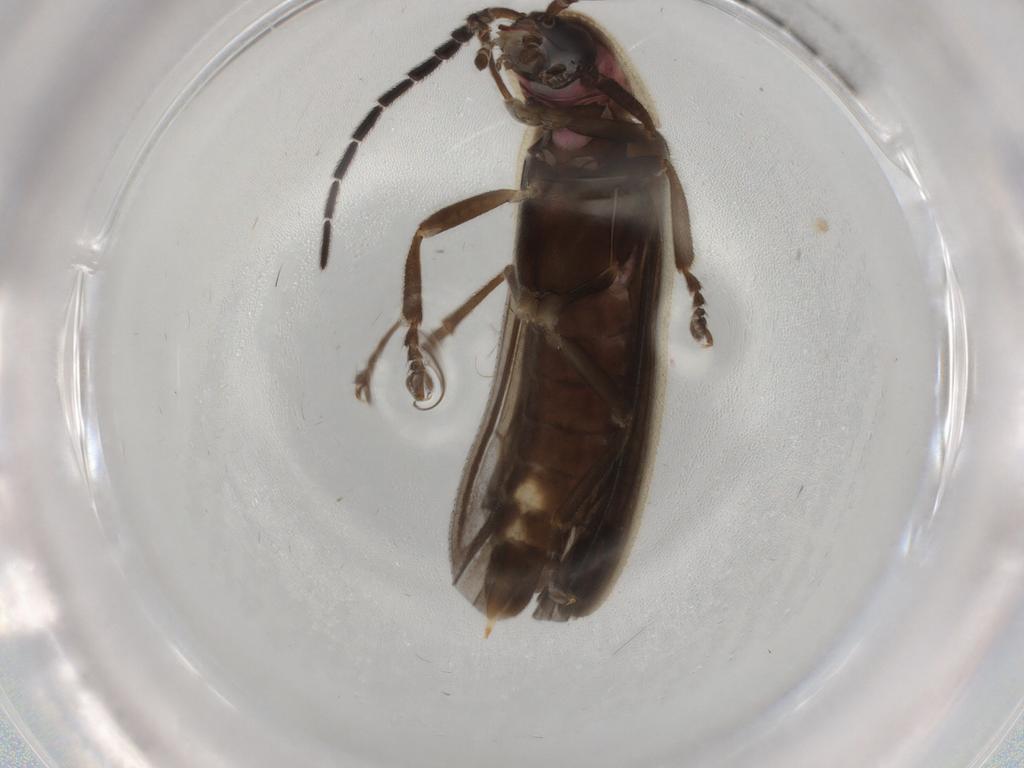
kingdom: Animalia
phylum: Arthropoda
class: Insecta
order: Coleoptera
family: Lampyridae
